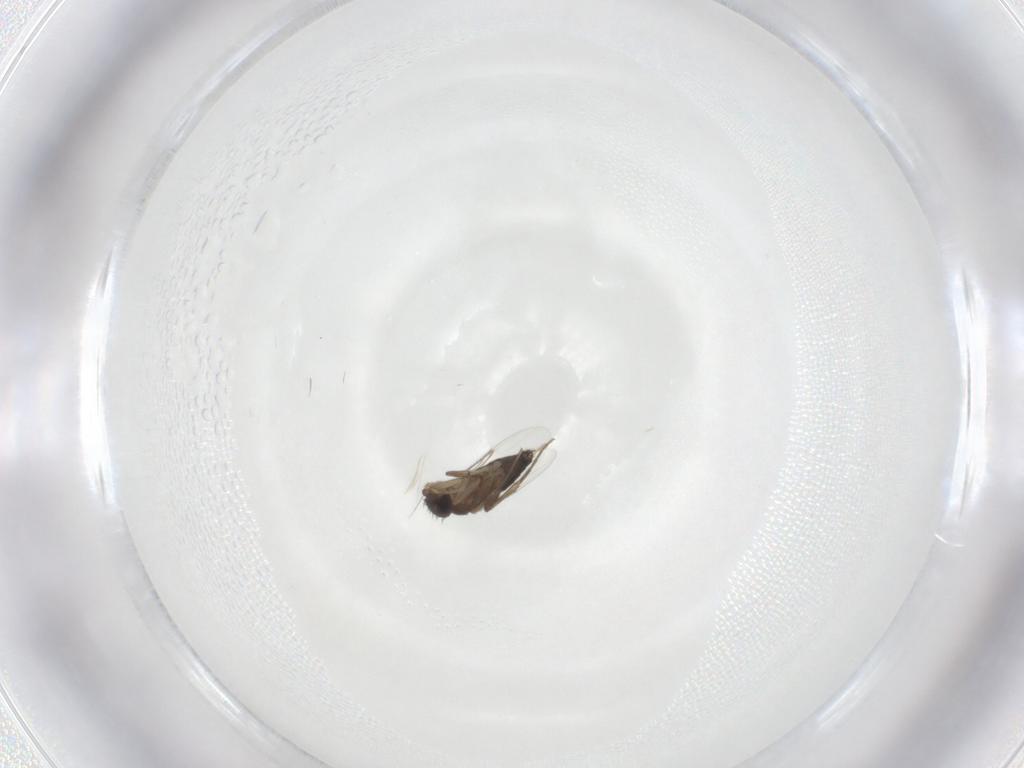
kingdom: Animalia
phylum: Arthropoda
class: Insecta
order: Diptera
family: Phoridae
